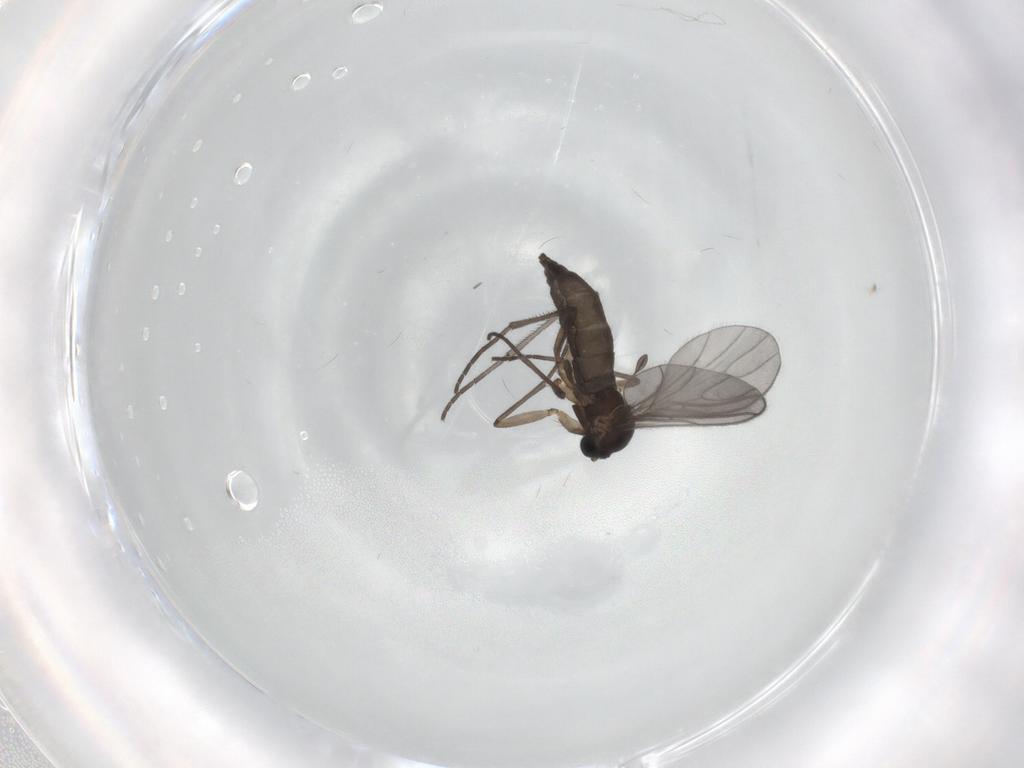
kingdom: Animalia
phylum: Arthropoda
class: Insecta
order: Diptera
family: Sciaridae
